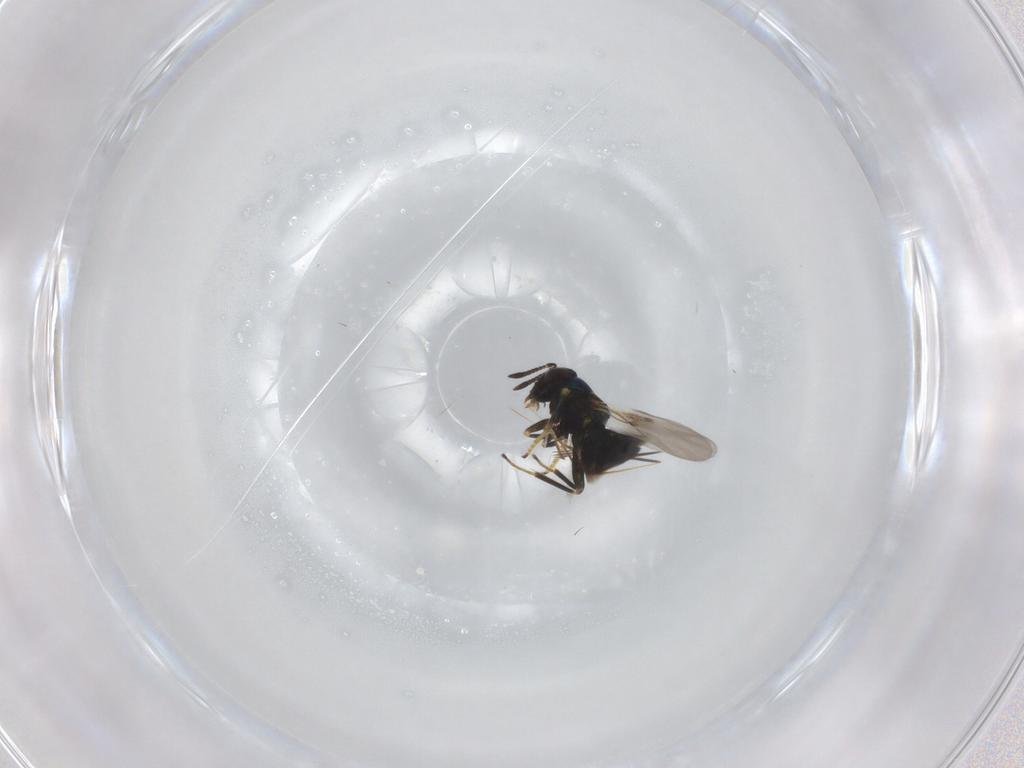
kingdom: Animalia
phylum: Arthropoda
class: Insecta
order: Hymenoptera
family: Encyrtidae
